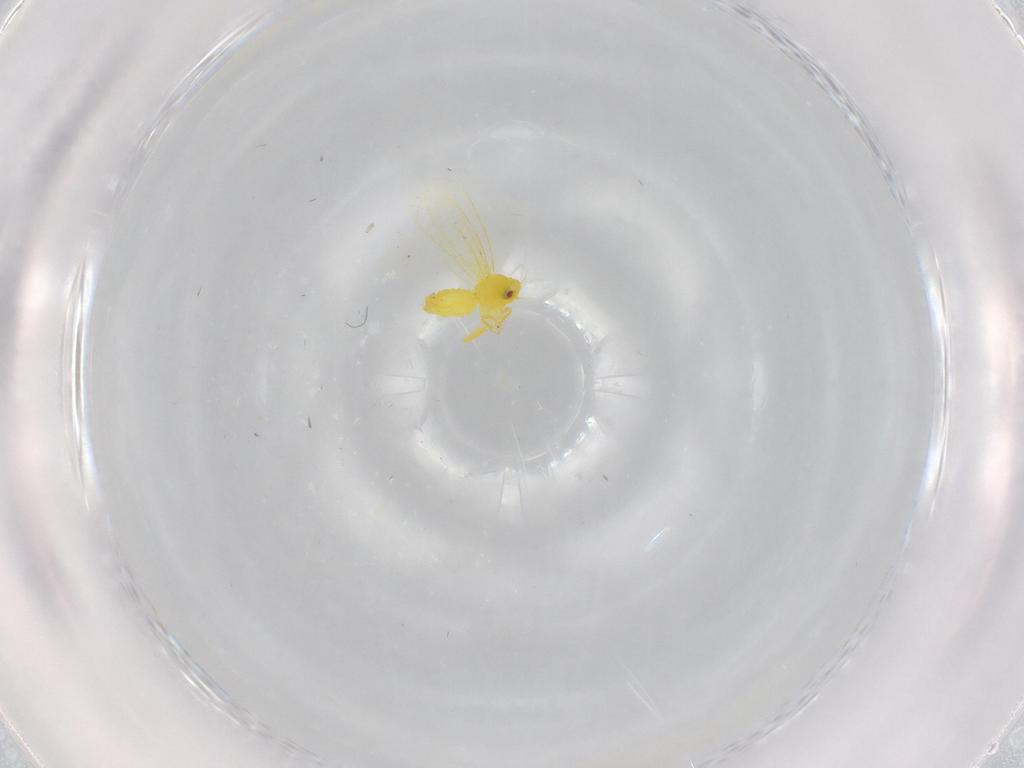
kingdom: Animalia
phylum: Arthropoda
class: Insecta
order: Hemiptera
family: Aleyrodidae
